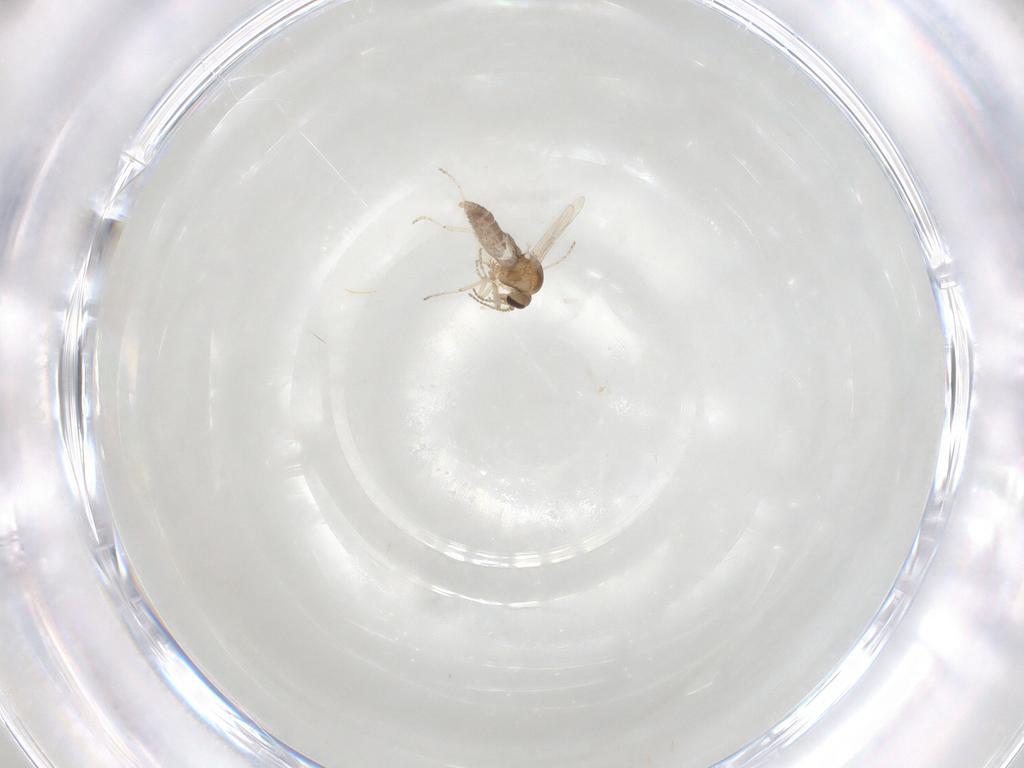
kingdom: Animalia
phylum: Arthropoda
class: Insecta
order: Diptera
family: Ceratopogonidae
